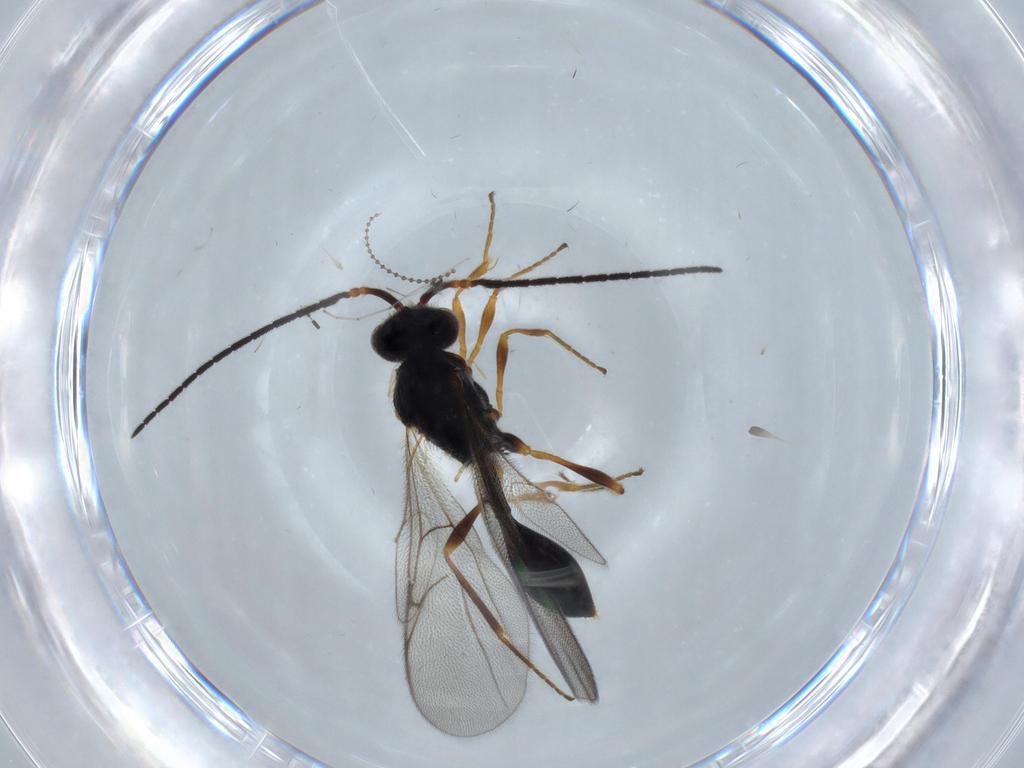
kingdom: Animalia
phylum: Arthropoda
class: Insecta
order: Hymenoptera
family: Diapriidae
